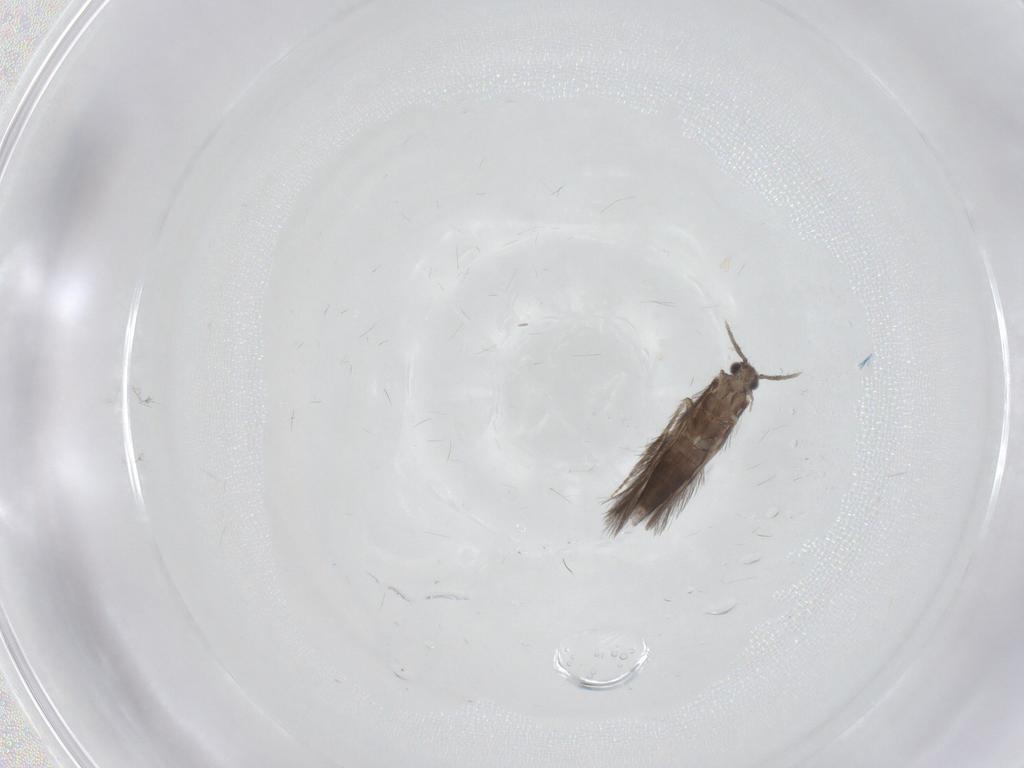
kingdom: Animalia
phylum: Arthropoda
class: Insecta
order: Trichoptera
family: Hydroptilidae
